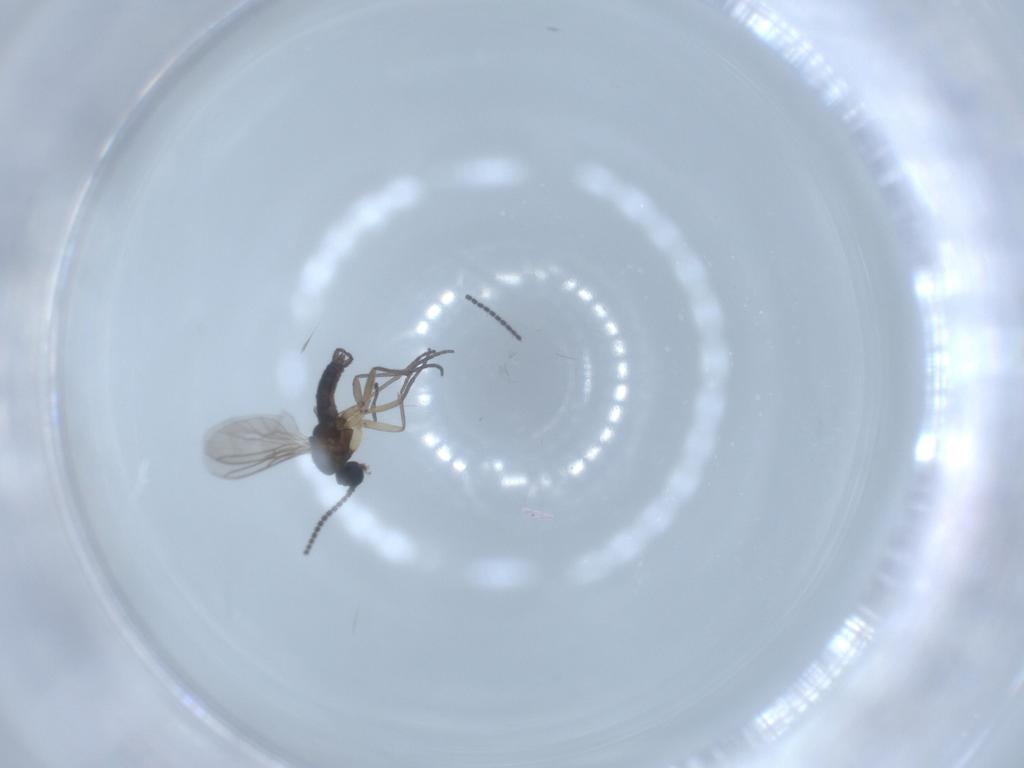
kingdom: Animalia
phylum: Arthropoda
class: Insecta
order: Diptera
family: Sciaridae
